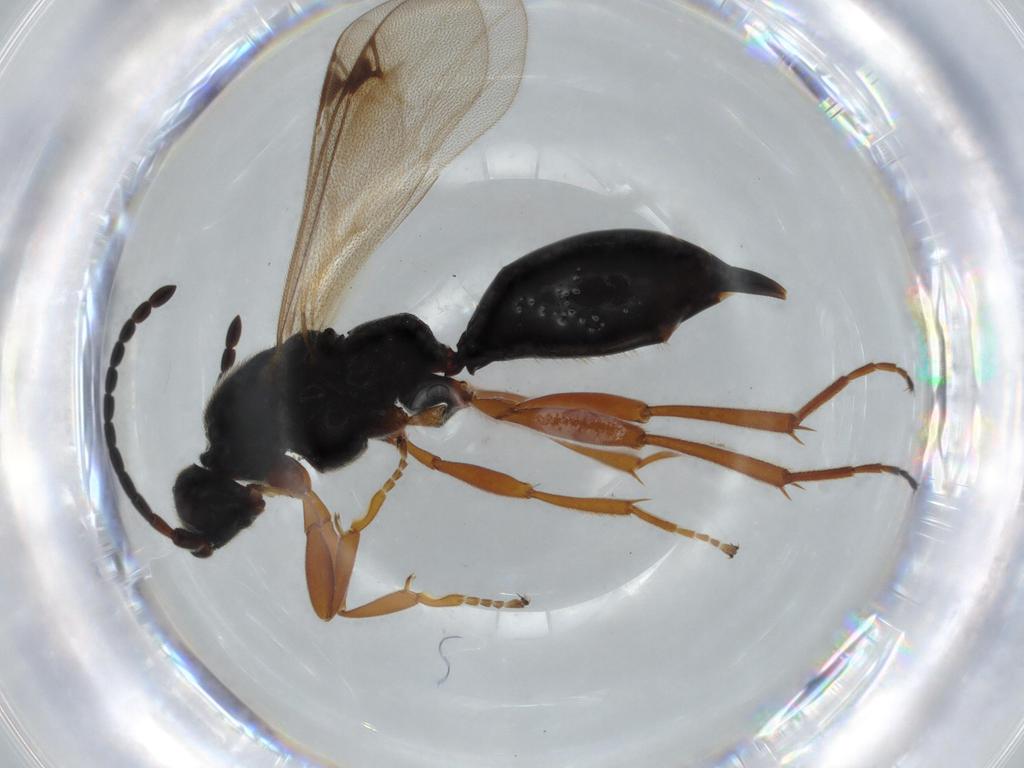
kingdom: Animalia
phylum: Arthropoda
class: Insecta
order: Hymenoptera
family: Proctotrupidae
